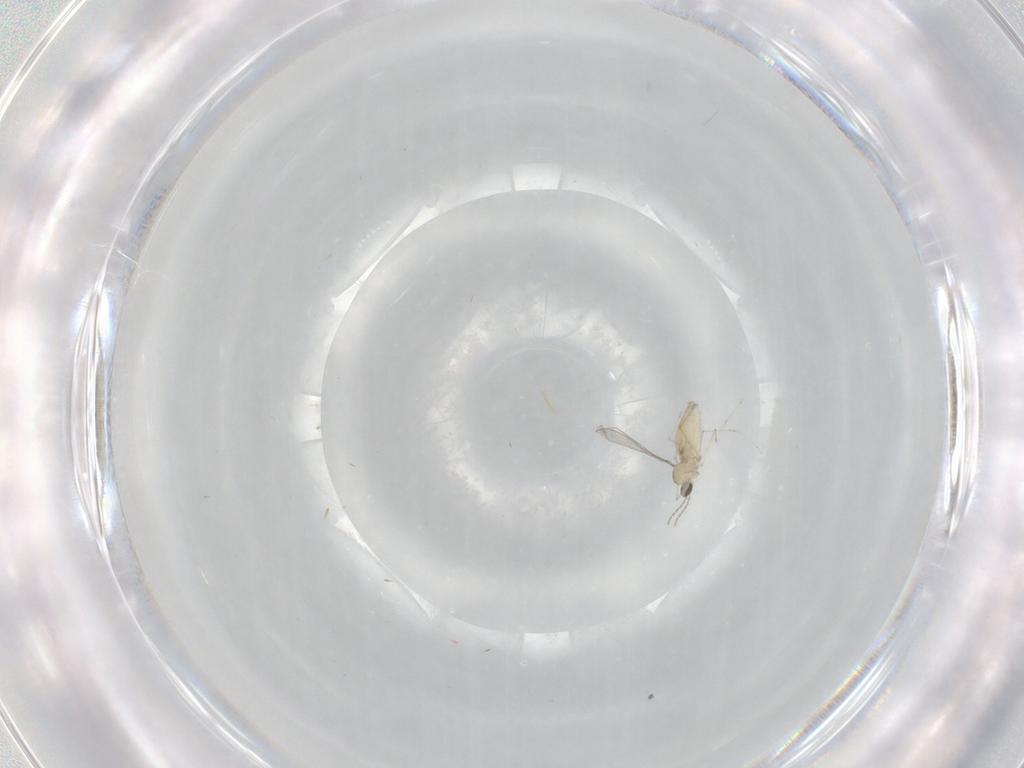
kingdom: Animalia
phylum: Arthropoda
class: Insecta
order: Diptera
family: Cecidomyiidae
